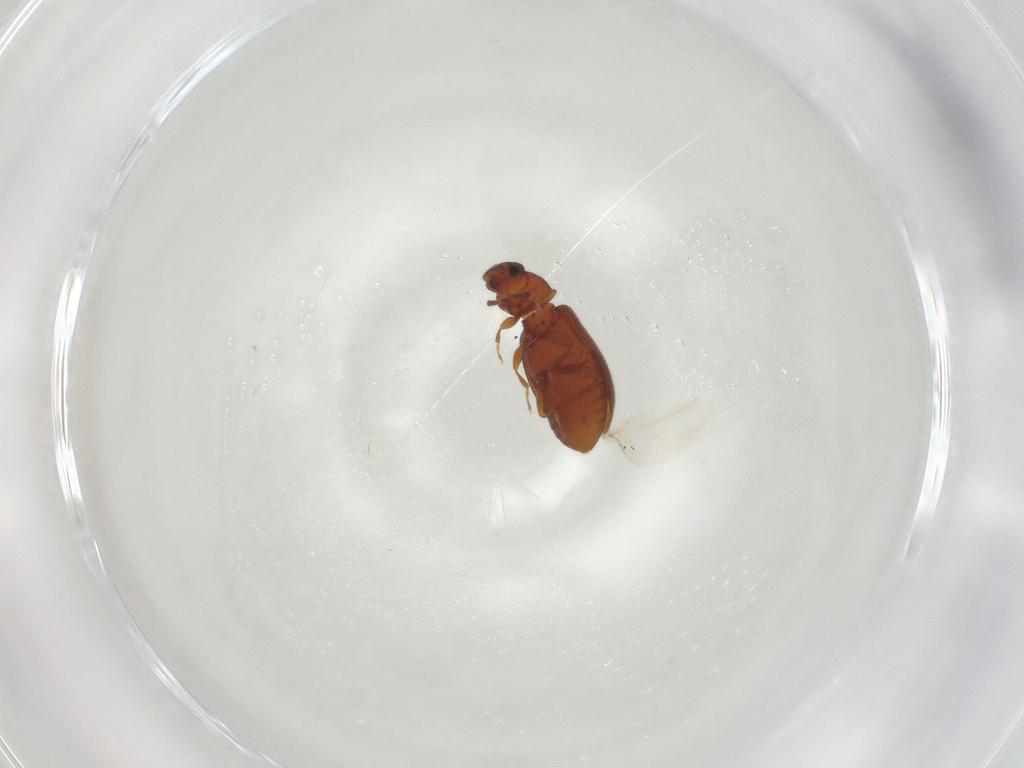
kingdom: Animalia
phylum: Arthropoda
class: Insecta
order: Coleoptera
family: Latridiidae
